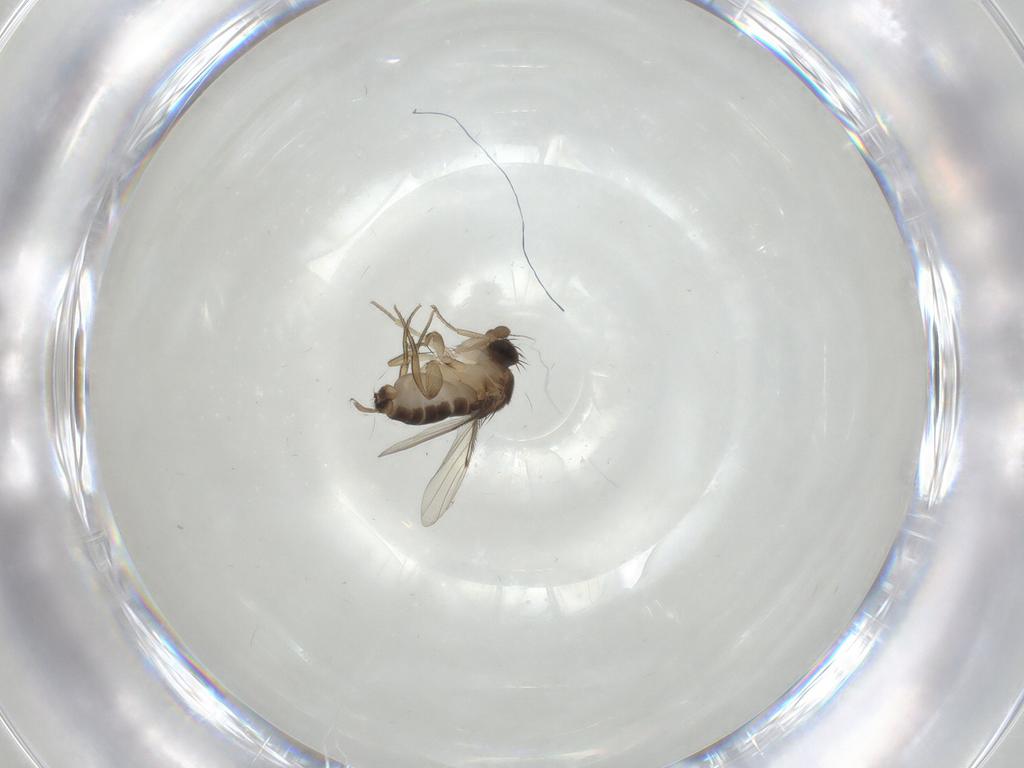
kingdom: Animalia
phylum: Arthropoda
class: Insecta
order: Diptera
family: Phoridae
